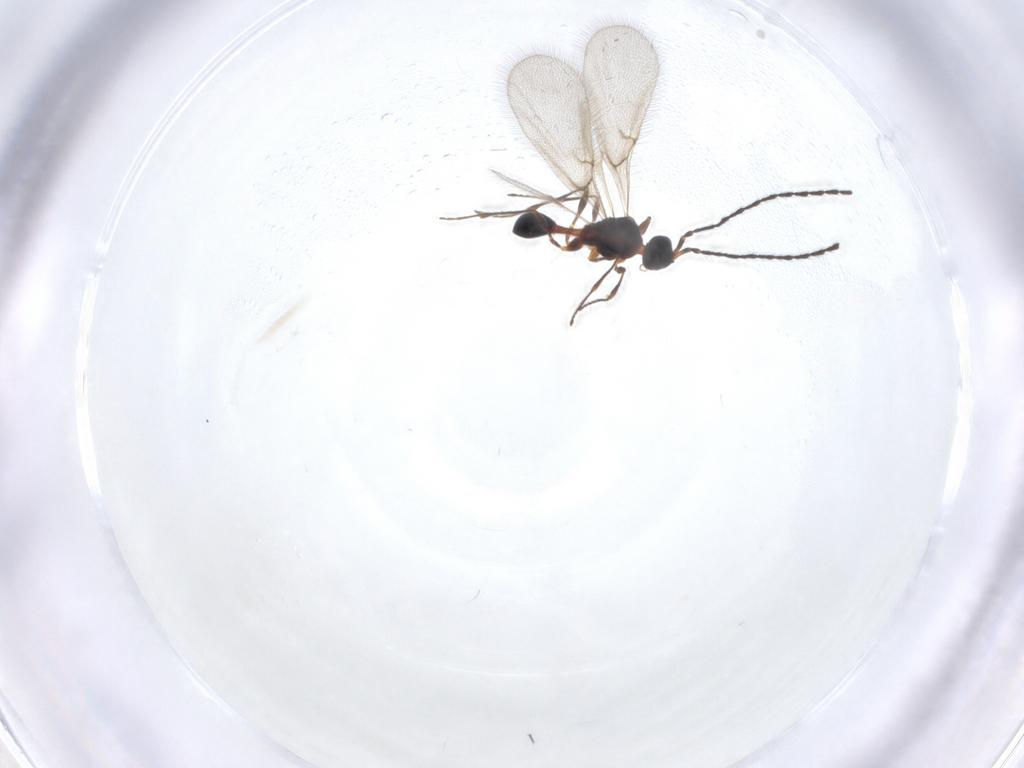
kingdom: Animalia
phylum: Arthropoda
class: Insecta
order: Hymenoptera
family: Diapriidae
